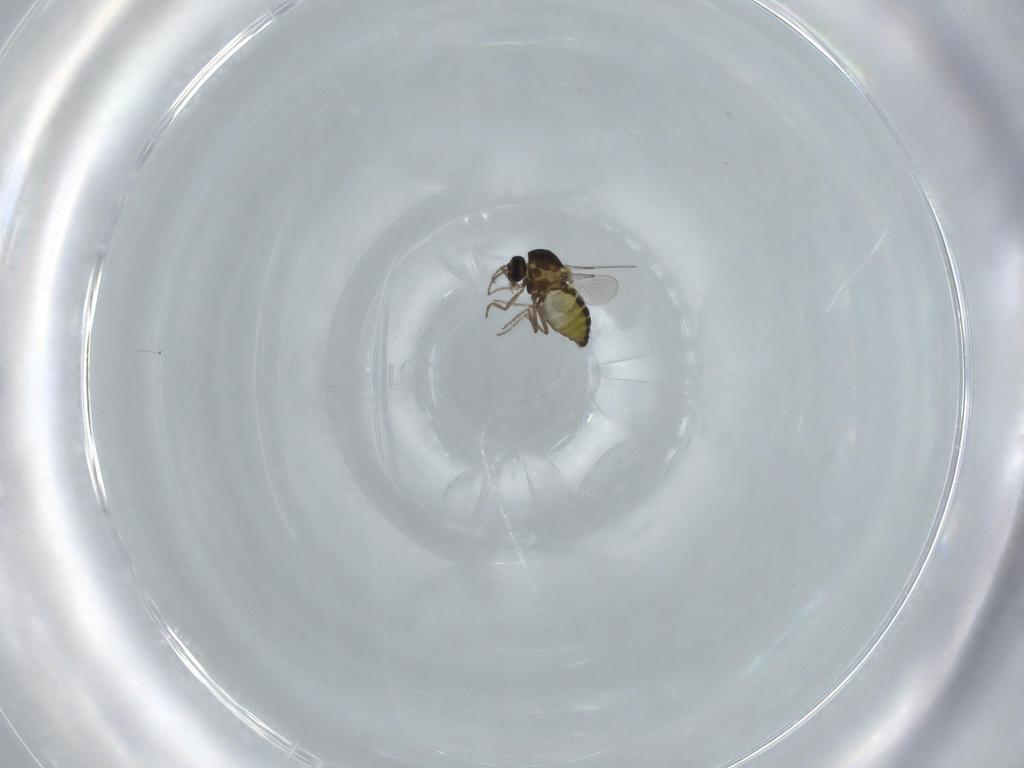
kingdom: Animalia
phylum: Arthropoda
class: Insecta
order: Diptera
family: Ceratopogonidae
